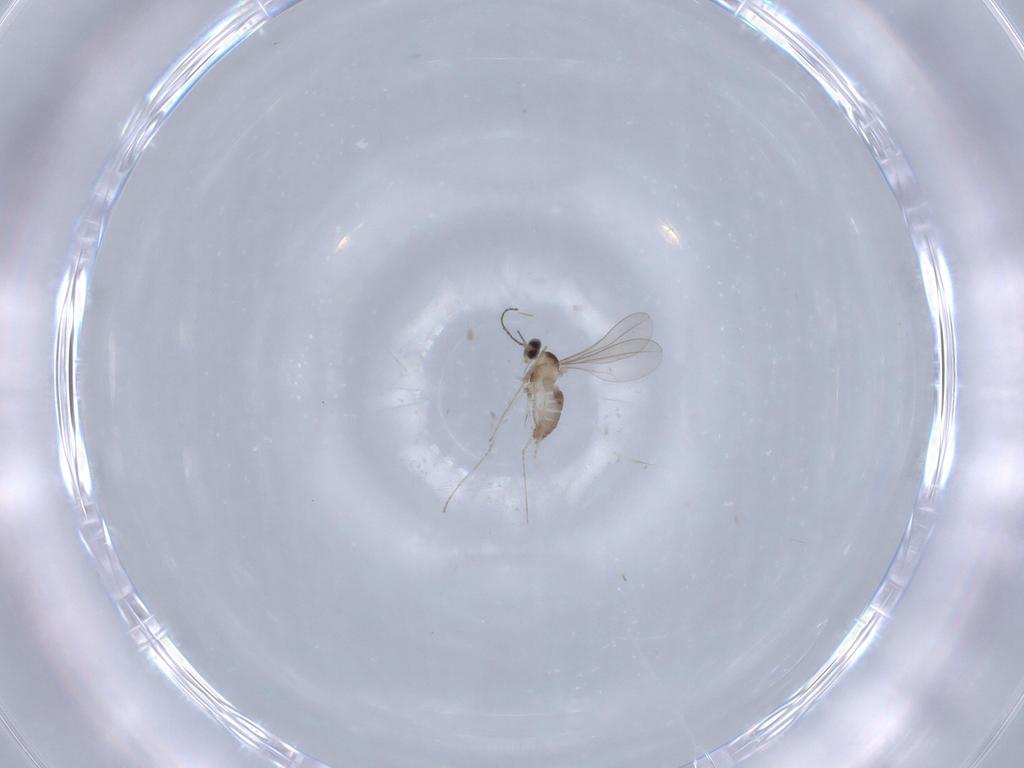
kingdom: Animalia
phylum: Arthropoda
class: Insecta
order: Diptera
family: Cecidomyiidae
